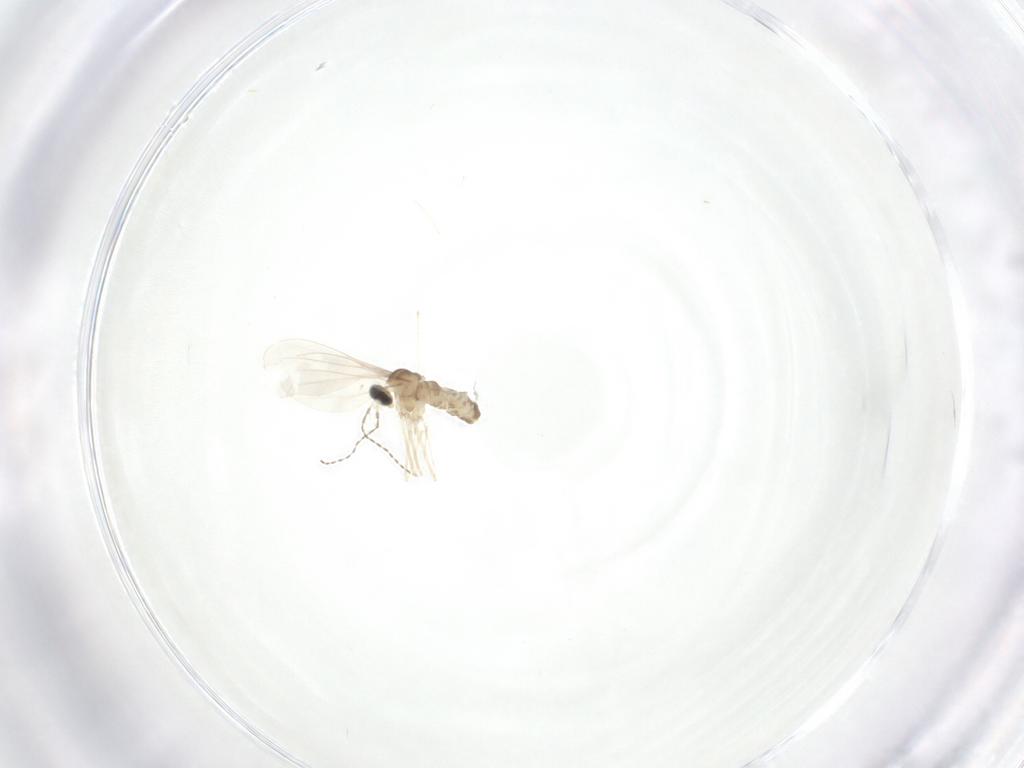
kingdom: Animalia
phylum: Arthropoda
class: Insecta
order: Diptera
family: Cecidomyiidae
